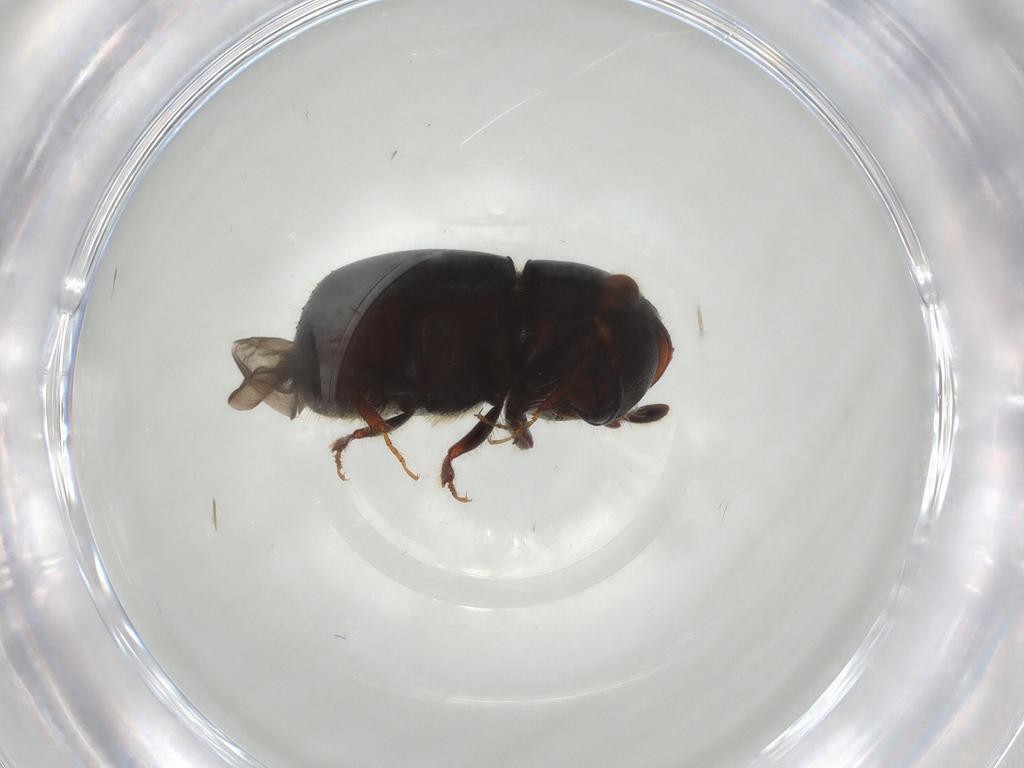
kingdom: Animalia
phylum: Arthropoda
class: Insecta
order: Coleoptera
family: Curculionidae
